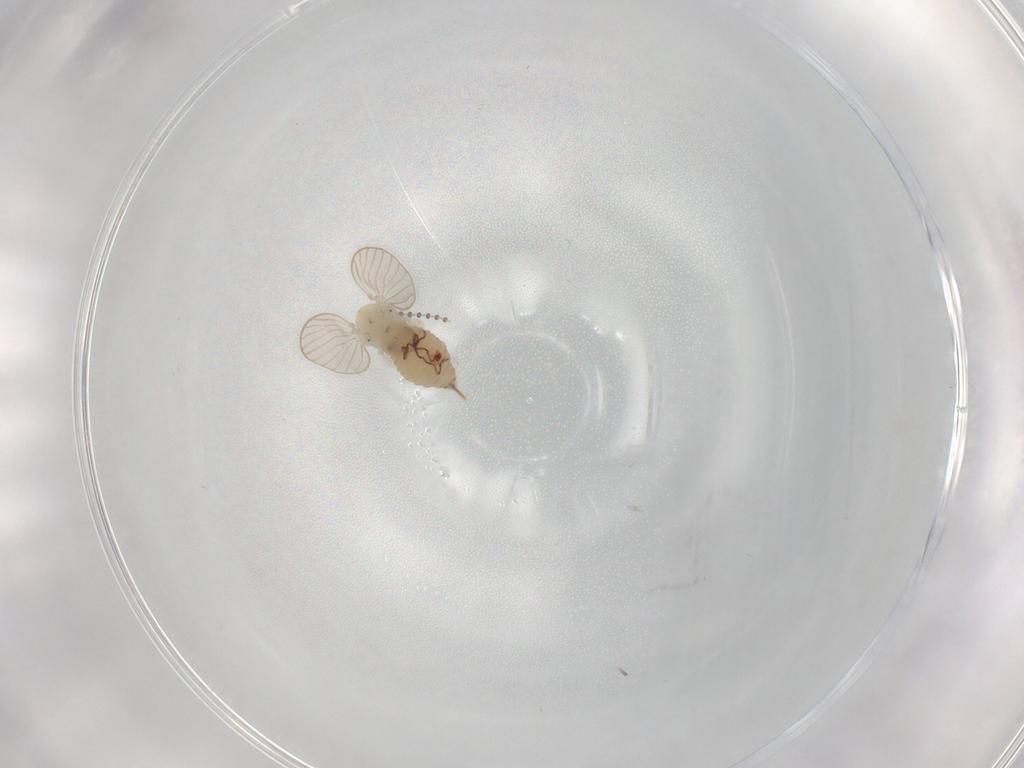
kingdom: Animalia
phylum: Arthropoda
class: Insecta
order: Diptera
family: Psychodidae
